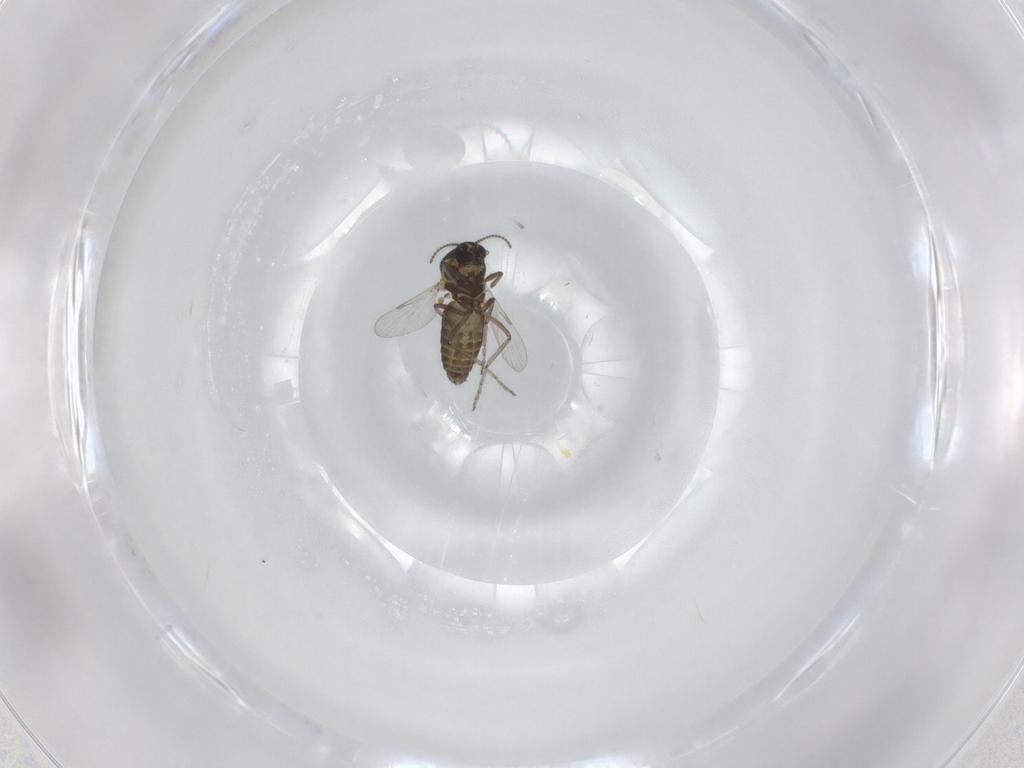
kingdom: Animalia
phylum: Arthropoda
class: Insecta
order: Diptera
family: Ceratopogonidae
